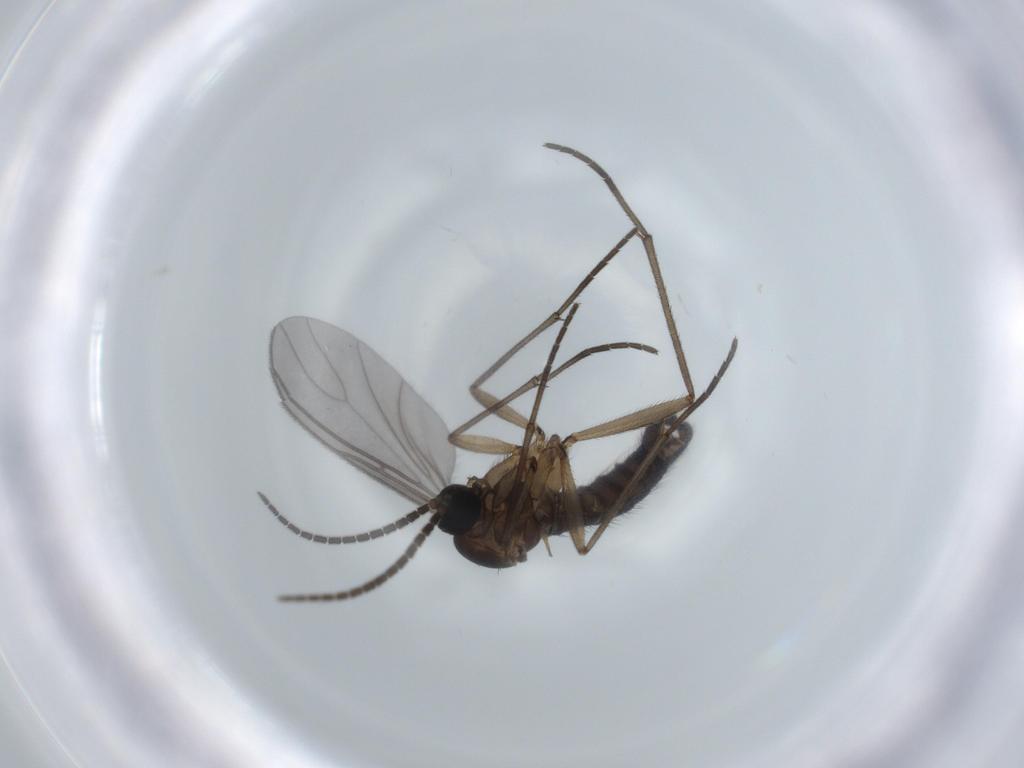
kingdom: Animalia
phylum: Arthropoda
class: Insecta
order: Diptera
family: Sciaridae
